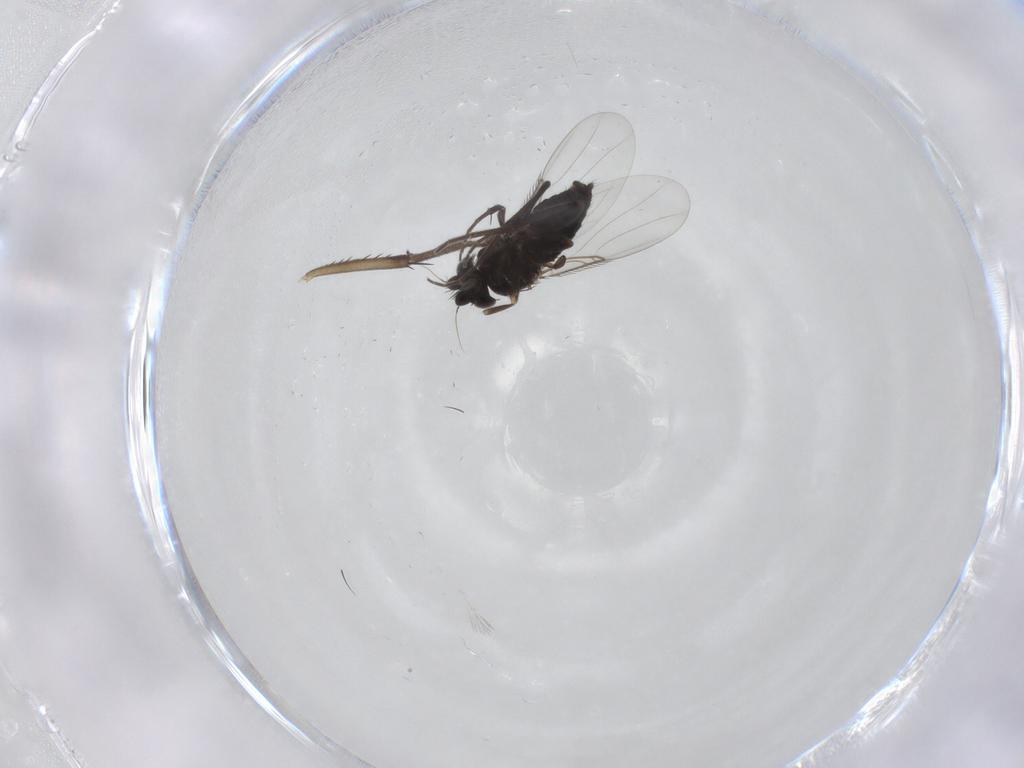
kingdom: Animalia
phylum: Arthropoda
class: Insecta
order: Diptera
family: Phoridae
